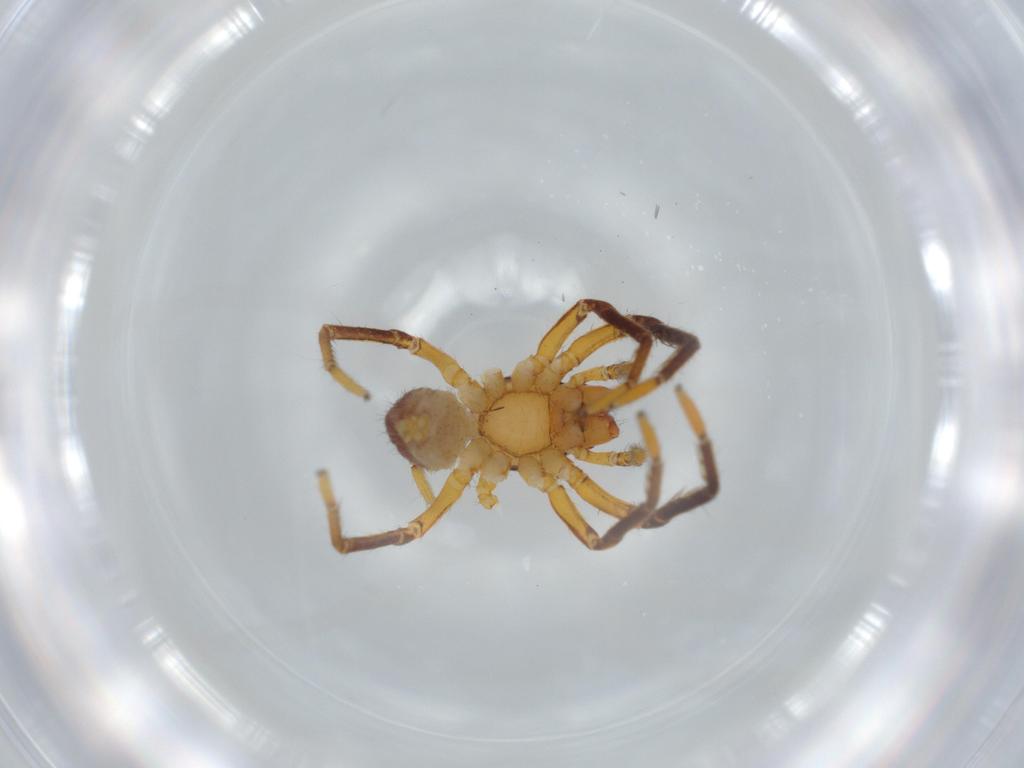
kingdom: Animalia
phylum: Arthropoda
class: Arachnida
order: Araneae
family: Corinnidae
